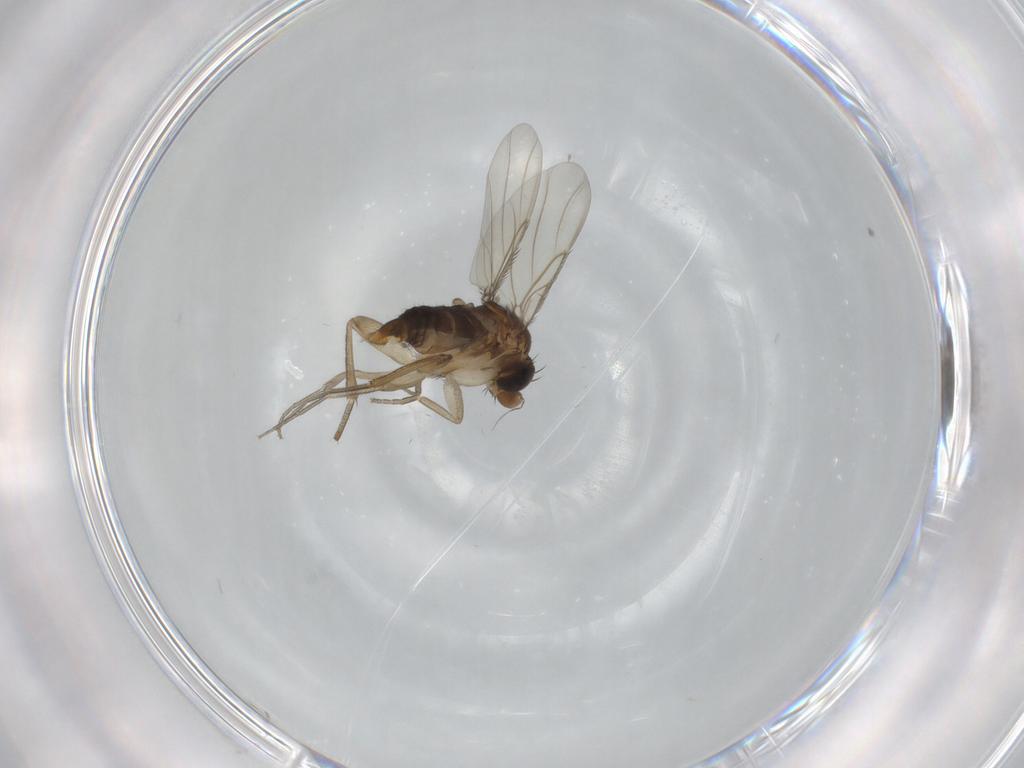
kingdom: Animalia
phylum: Arthropoda
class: Insecta
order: Diptera
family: Phoridae
